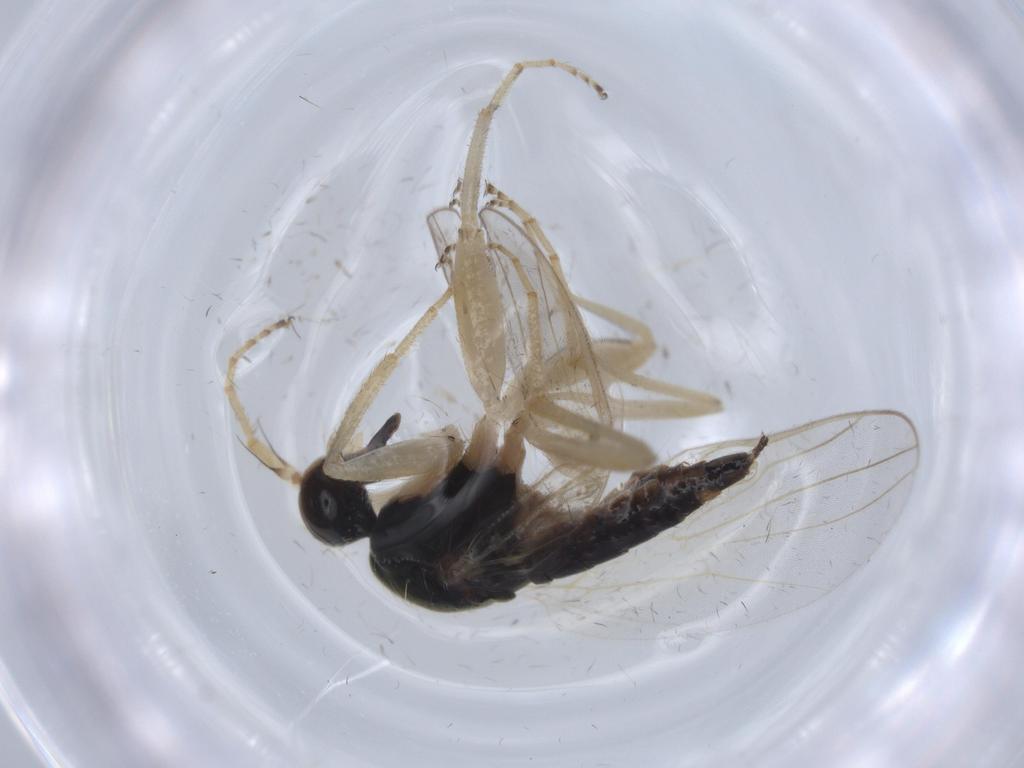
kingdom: Animalia
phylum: Arthropoda
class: Insecta
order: Diptera
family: Hybotidae
